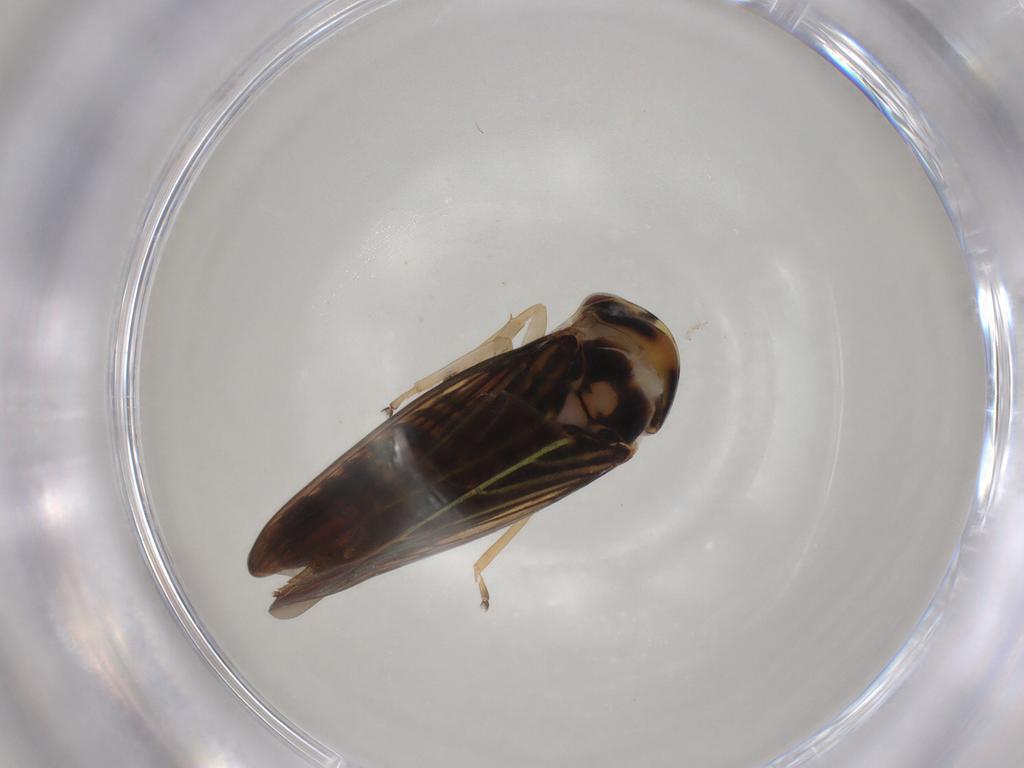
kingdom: Animalia
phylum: Arthropoda
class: Insecta
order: Hemiptera
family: Cicadellidae
